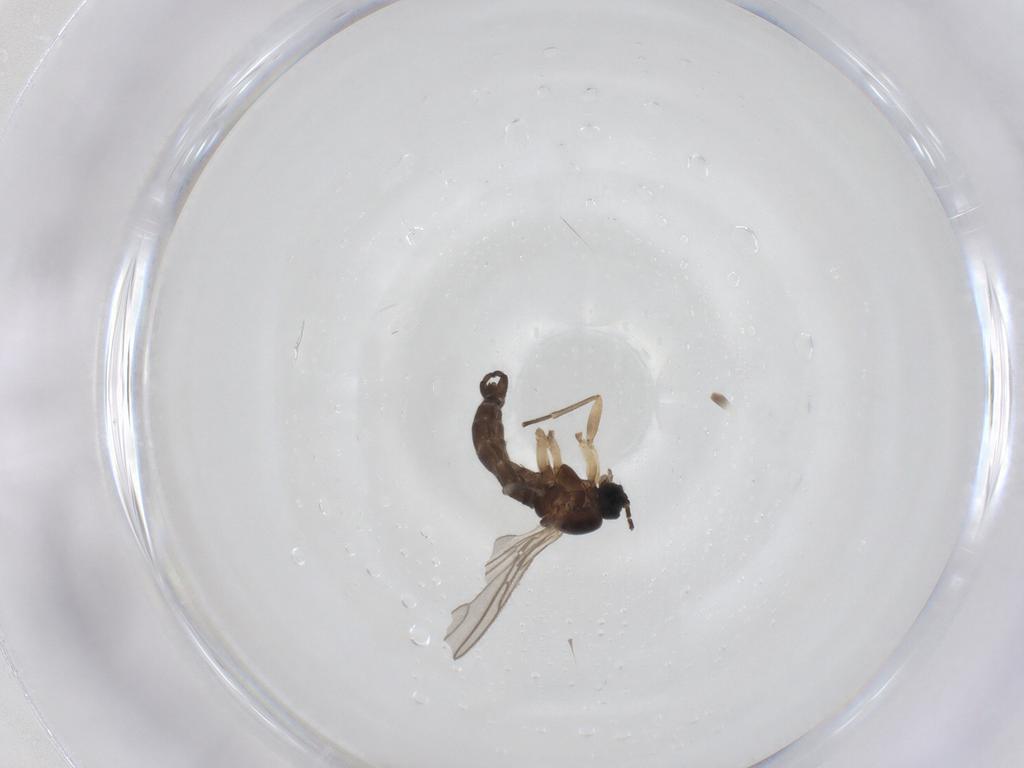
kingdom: Animalia
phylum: Arthropoda
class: Insecta
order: Diptera
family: Sciaridae
